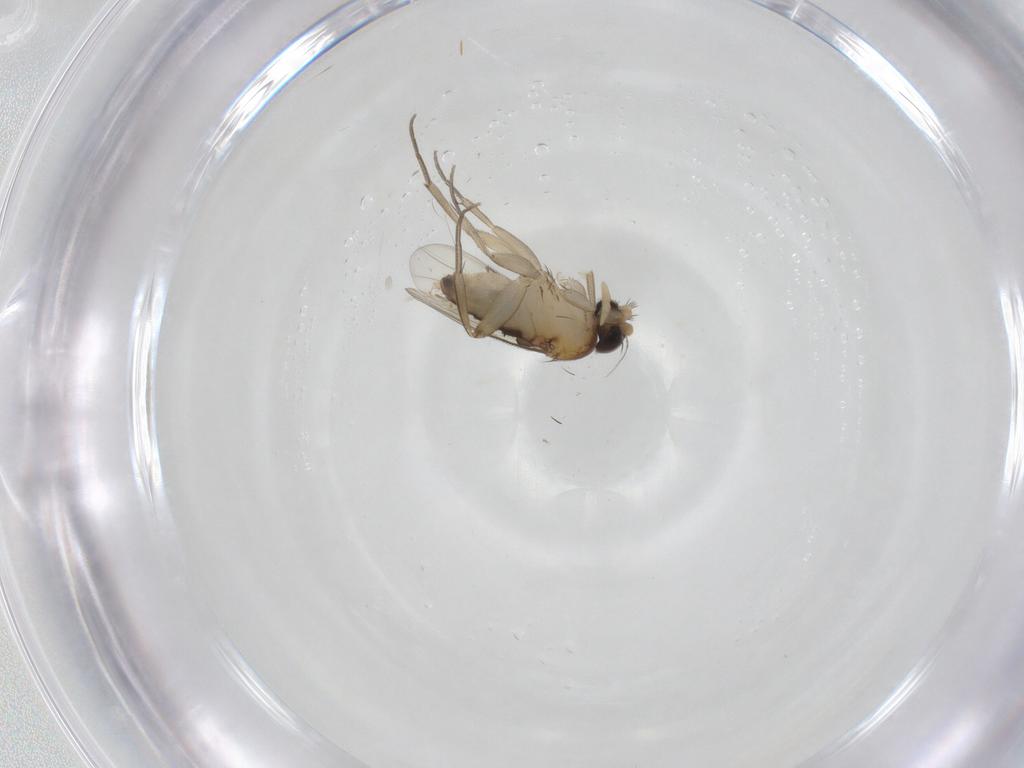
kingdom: Animalia
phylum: Arthropoda
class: Insecta
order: Diptera
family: Phoridae
